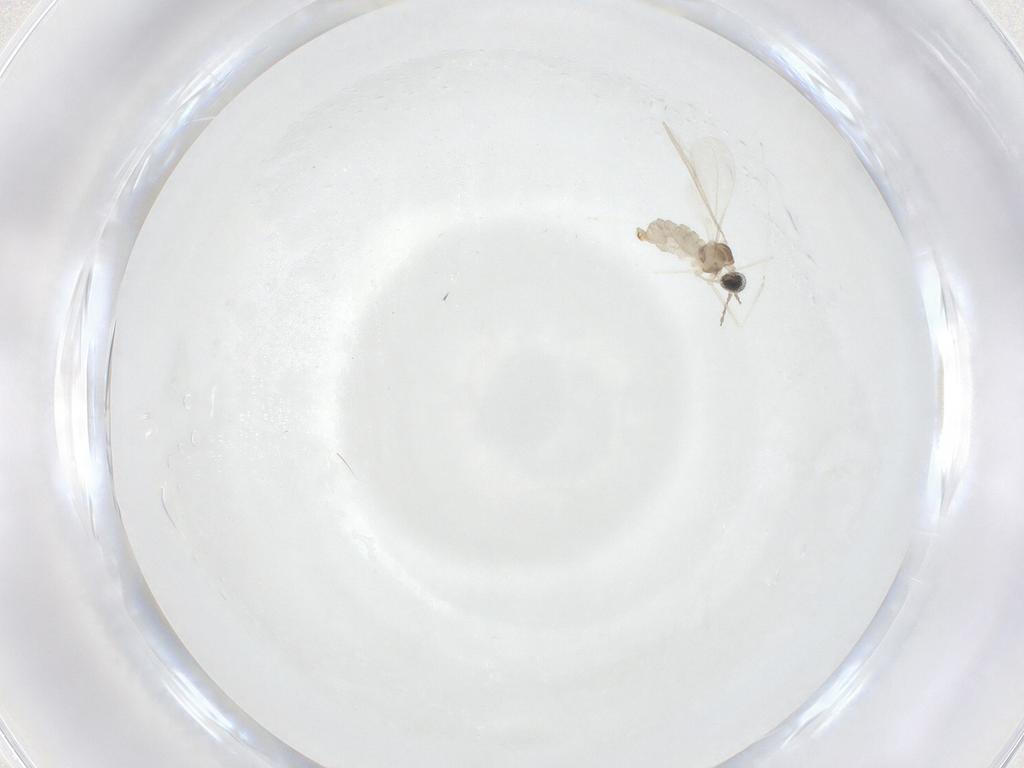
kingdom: Animalia
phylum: Arthropoda
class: Insecta
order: Diptera
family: Cecidomyiidae
